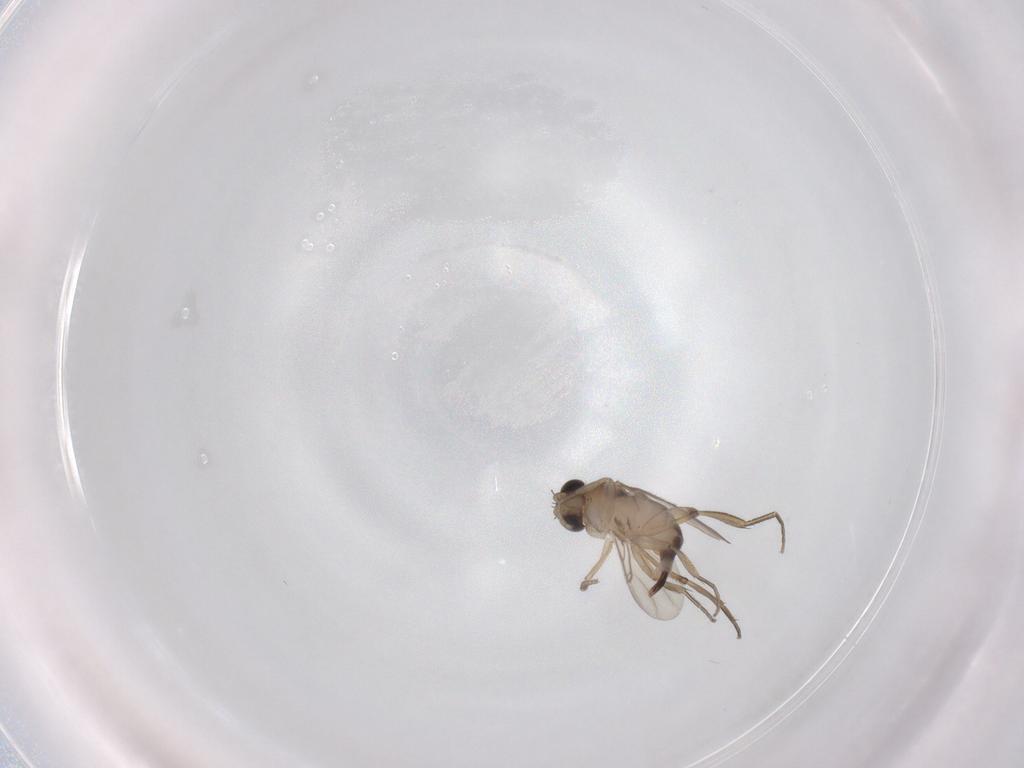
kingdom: Animalia
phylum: Arthropoda
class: Insecta
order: Diptera
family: Phoridae
